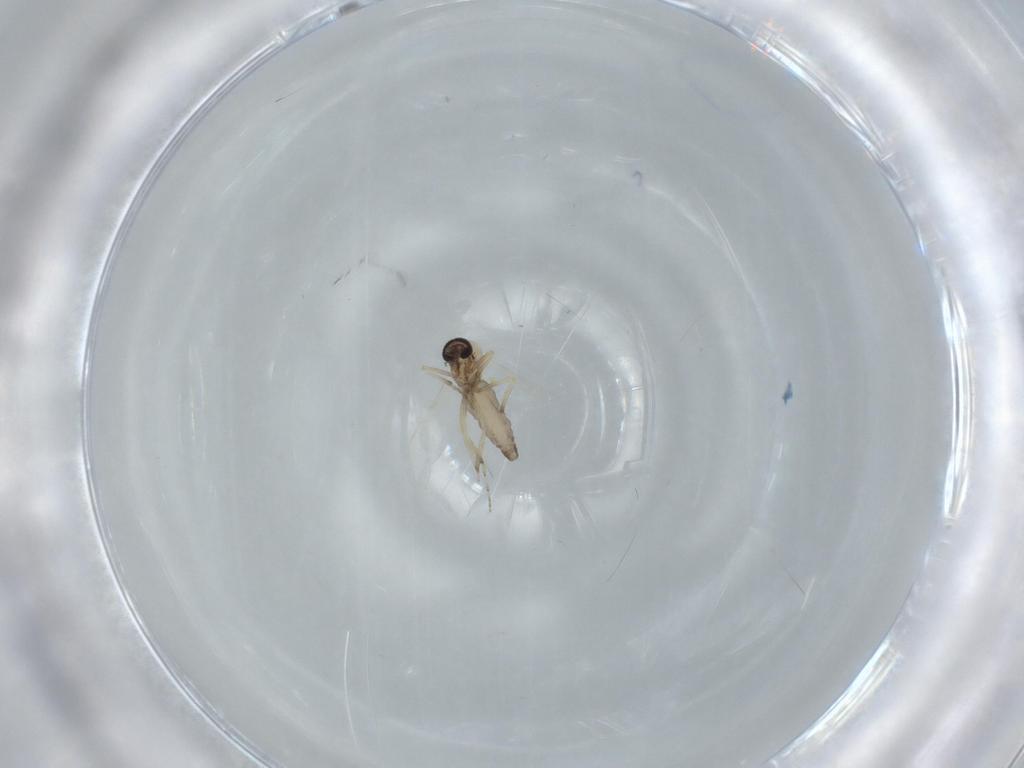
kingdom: Animalia
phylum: Arthropoda
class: Insecta
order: Diptera
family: Ceratopogonidae
